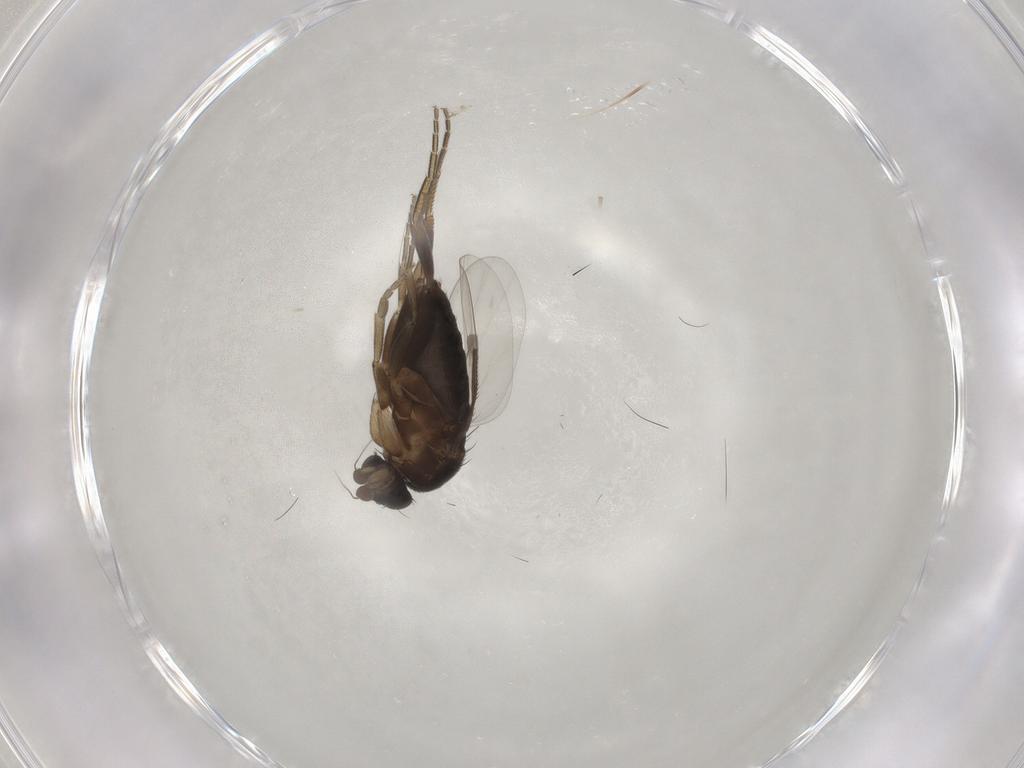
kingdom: Animalia
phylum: Arthropoda
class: Insecta
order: Diptera
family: Phoridae
